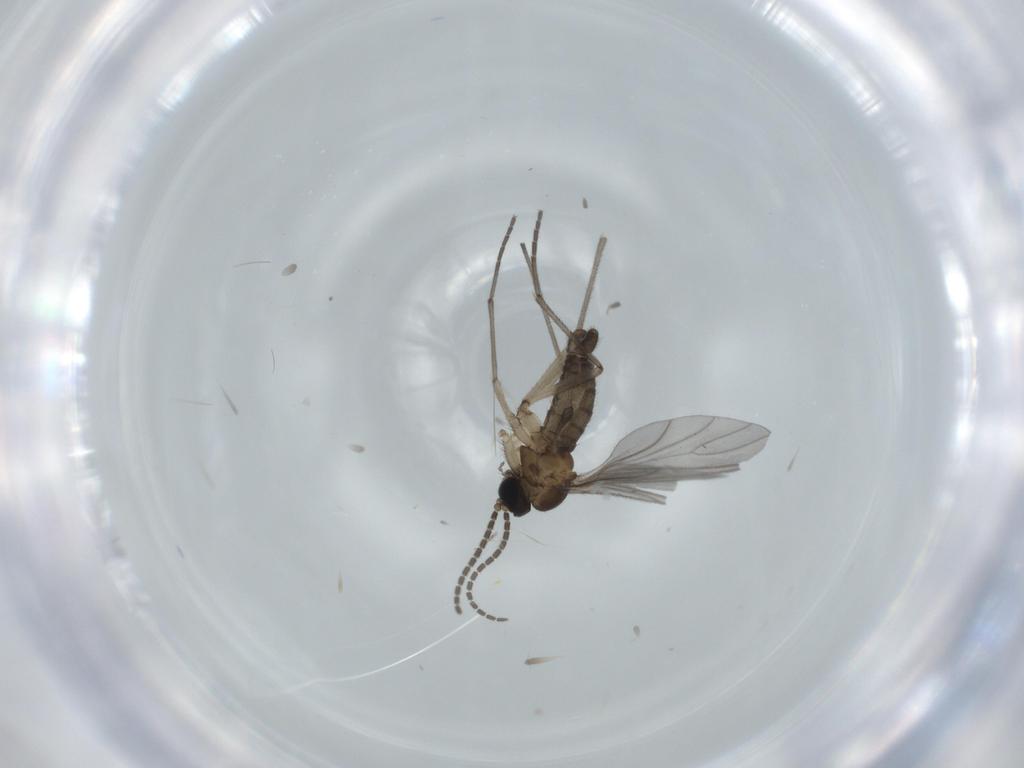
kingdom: Animalia
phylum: Arthropoda
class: Insecta
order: Diptera
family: Sciaridae
